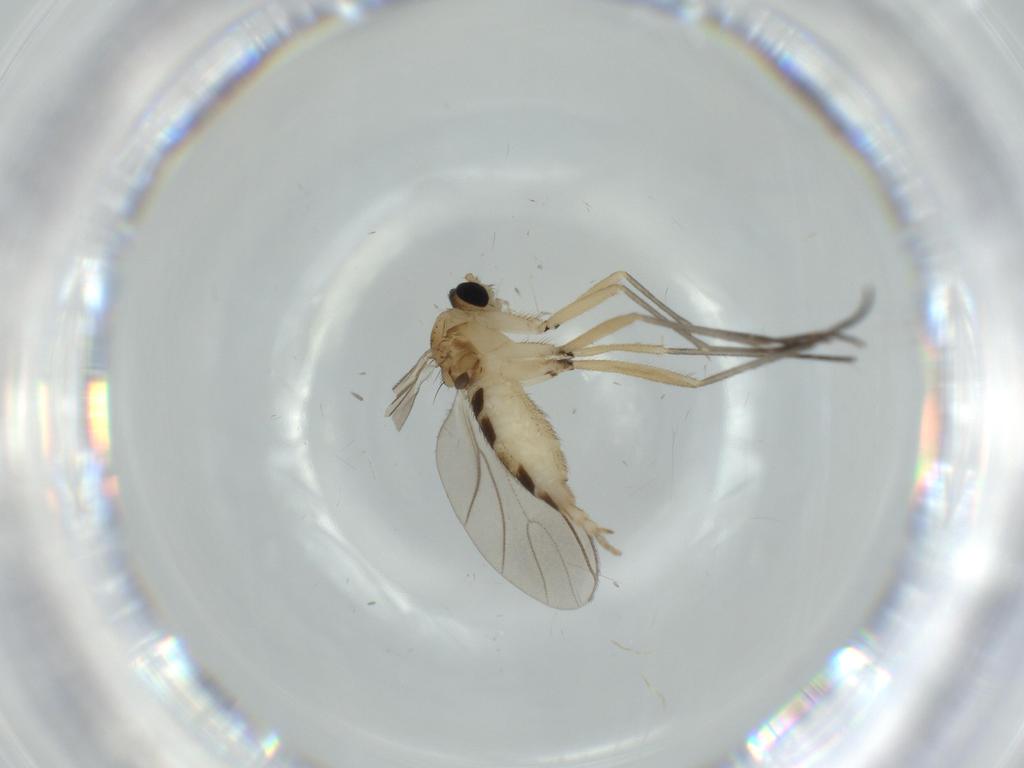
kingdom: Animalia
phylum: Arthropoda
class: Insecta
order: Diptera
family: Sciaridae
